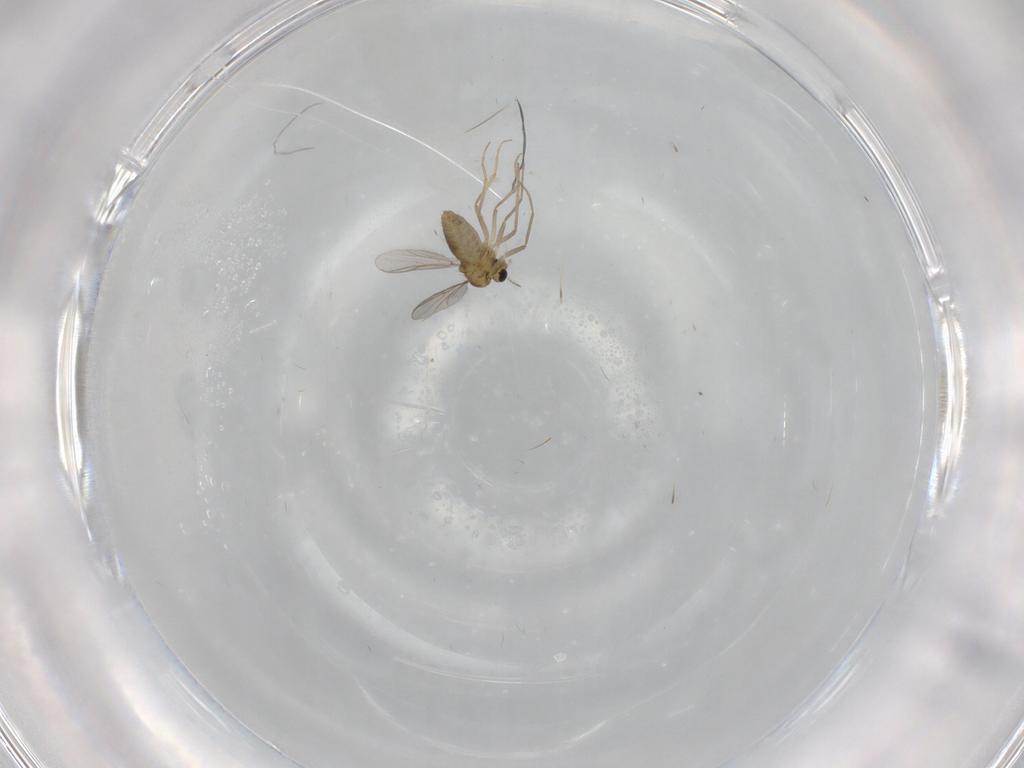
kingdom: Animalia
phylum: Arthropoda
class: Insecta
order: Diptera
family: Chironomidae
